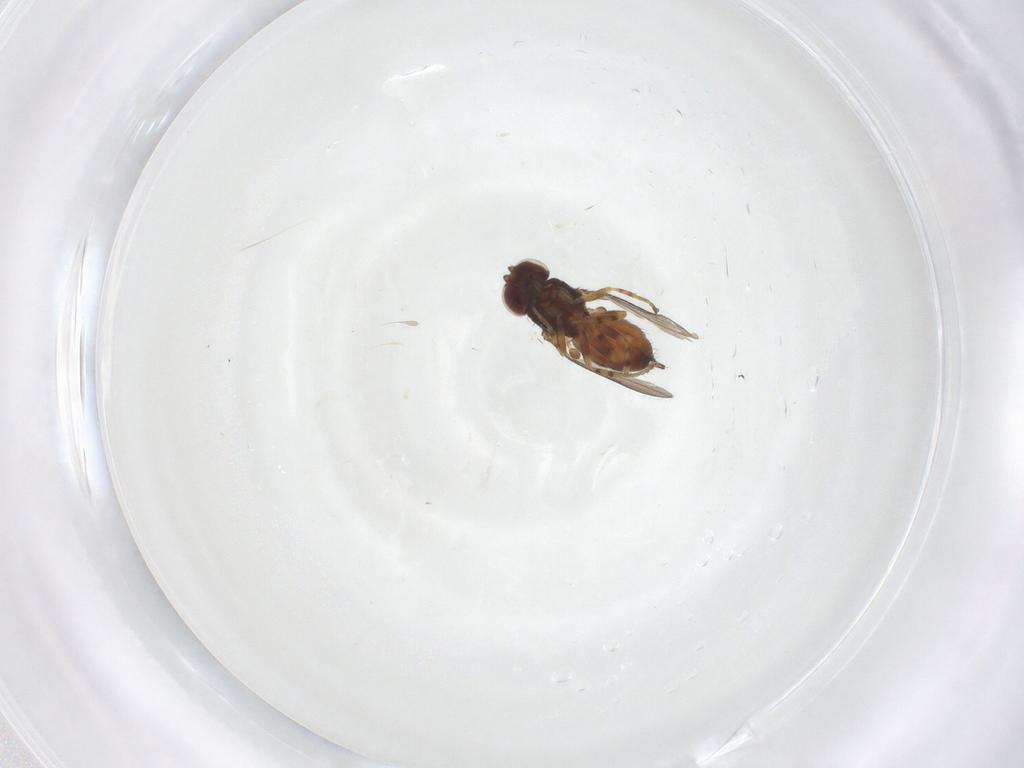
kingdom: Animalia
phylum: Arthropoda
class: Insecta
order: Diptera
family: Chloropidae
